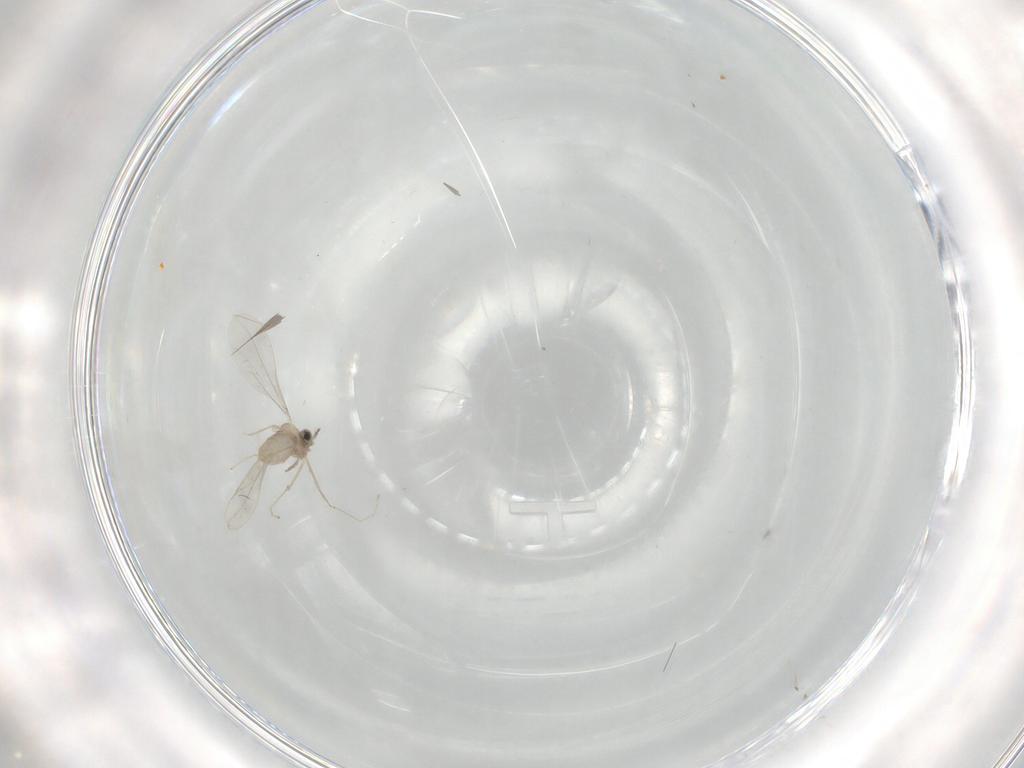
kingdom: Animalia
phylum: Arthropoda
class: Insecta
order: Diptera
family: Cecidomyiidae
